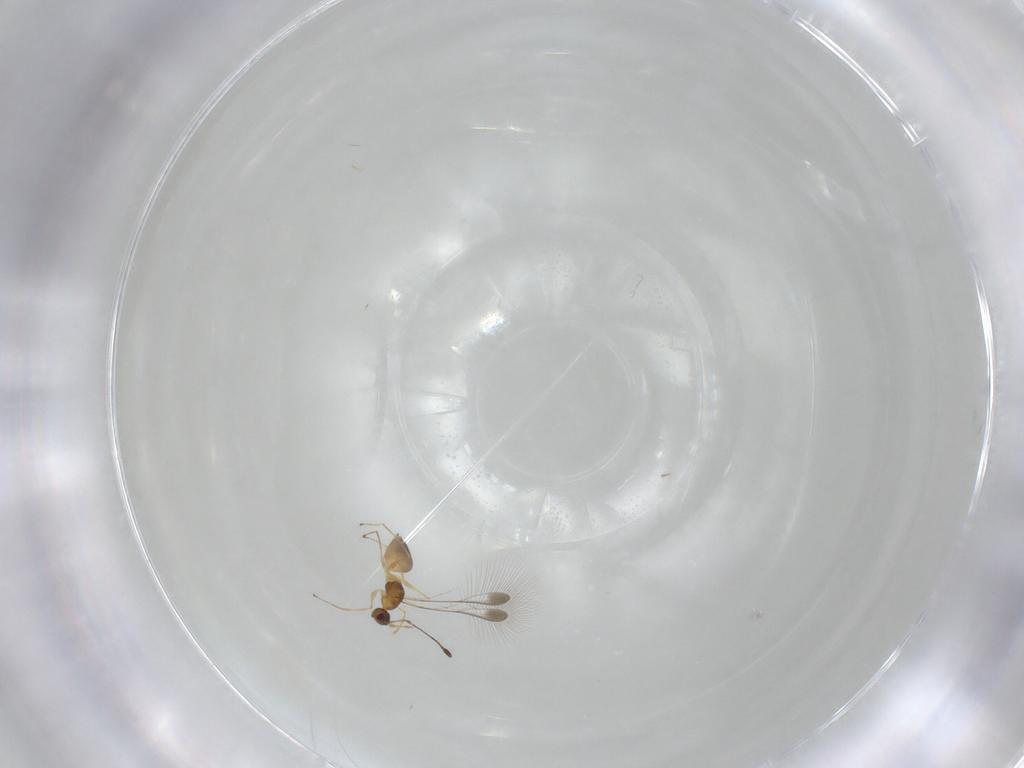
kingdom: Animalia
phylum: Arthropoda
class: Insecta
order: Hymenoptera
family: Mymaridae
